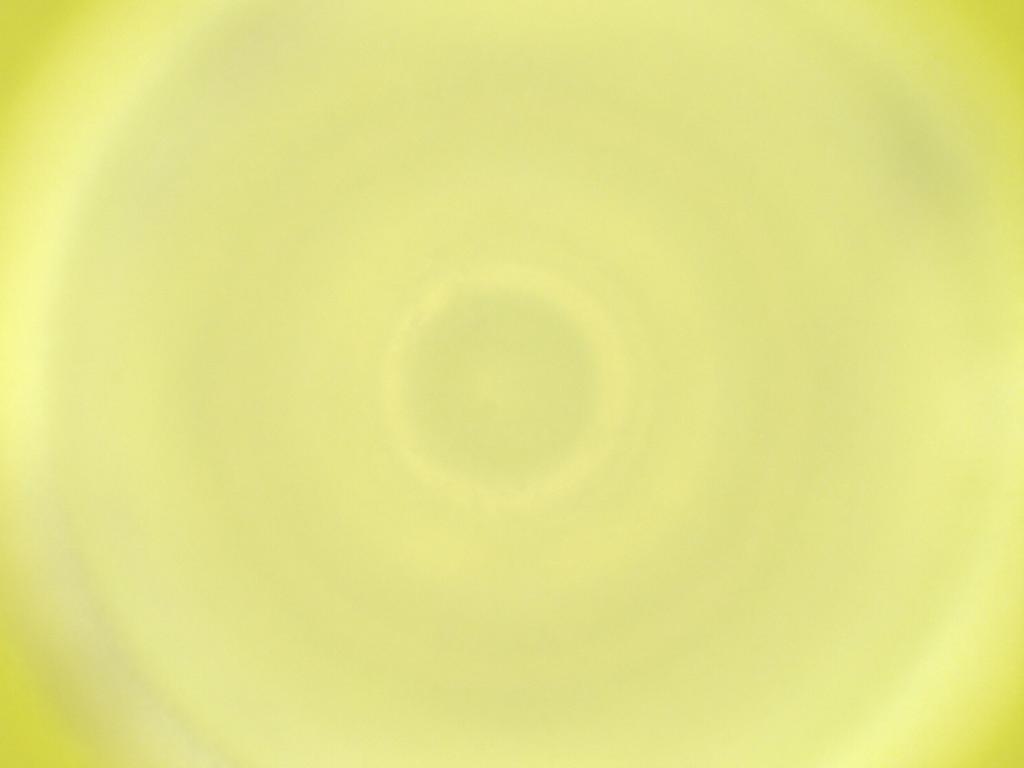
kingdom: Animalia
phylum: Arthropoda
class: Insecta
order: Diptera
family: Cecidomyiidae
